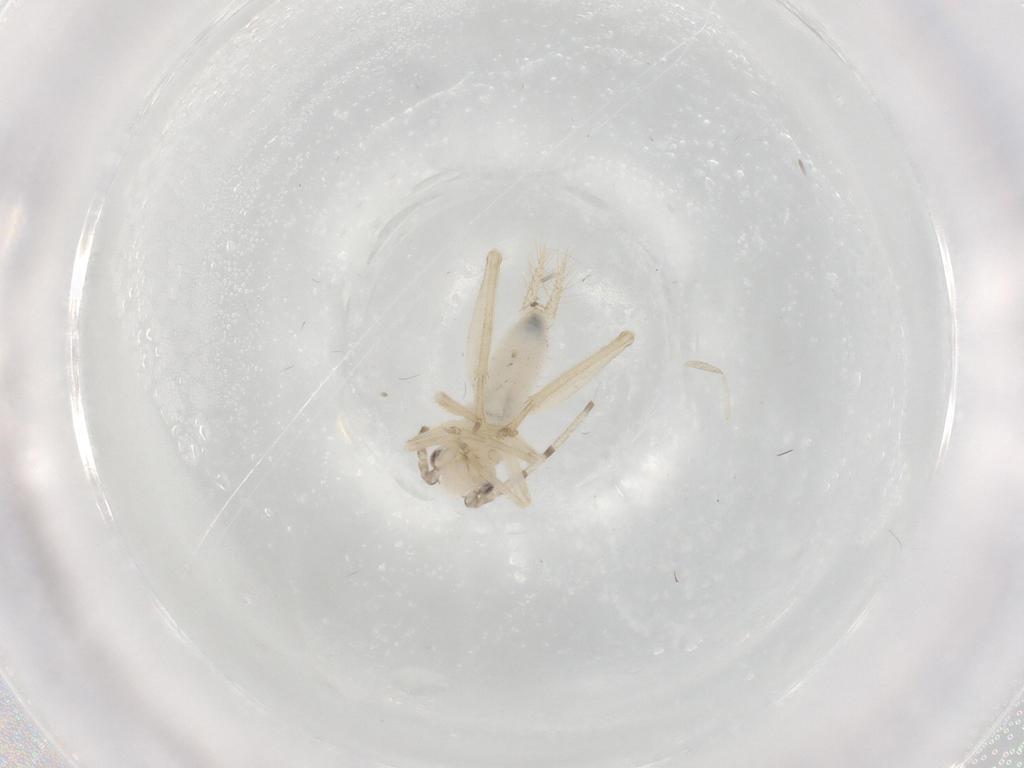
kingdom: Animalia
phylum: Arthropoda
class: Insecta
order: Orthoptera
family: Trigonidiidae
